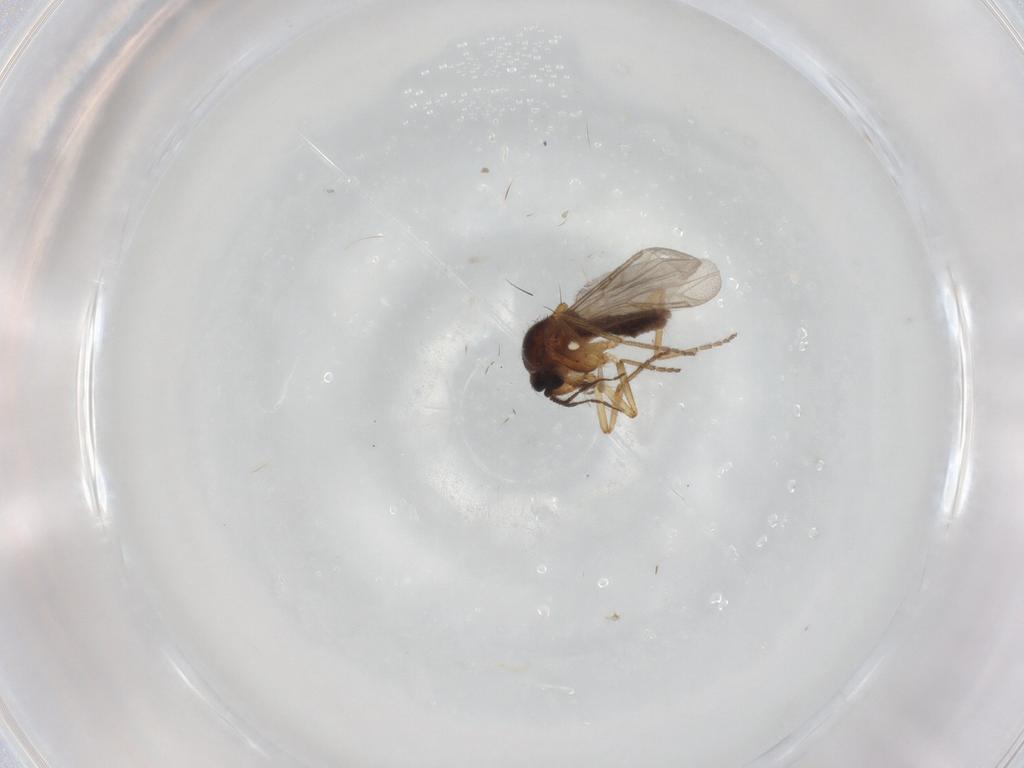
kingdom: Animalia
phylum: Arthropoda
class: Insecta
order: Diptera
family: Ceratopogonidae
